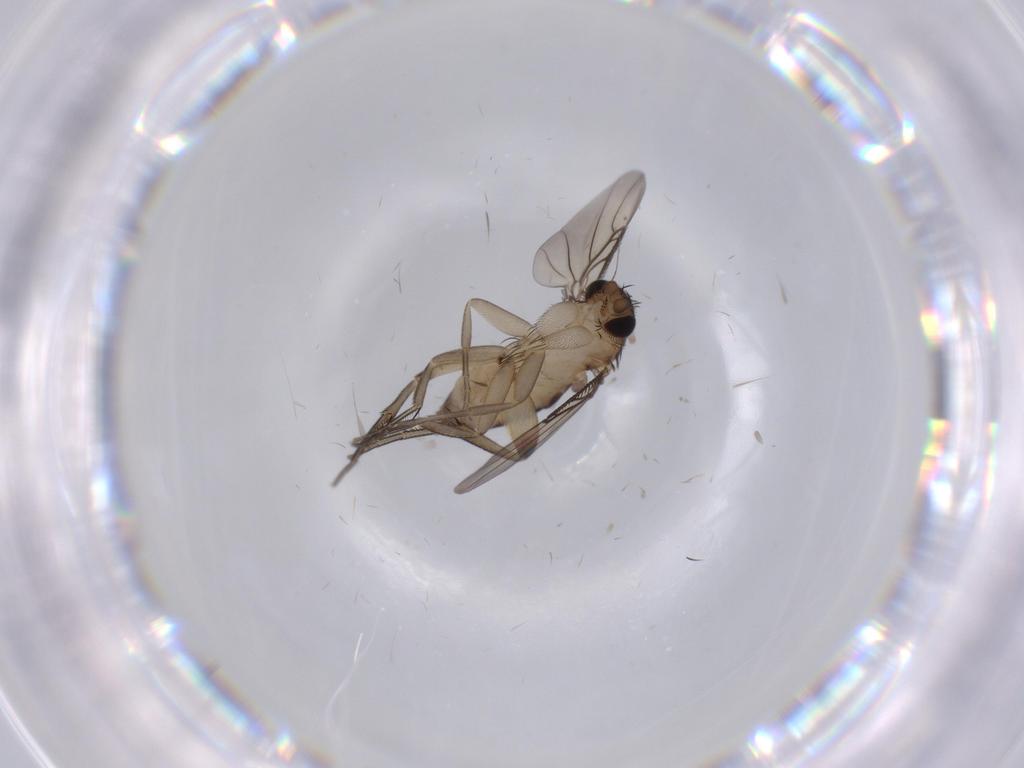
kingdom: Animalia
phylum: Arthropoda
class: Insecta
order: Diptera
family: Phoridae
